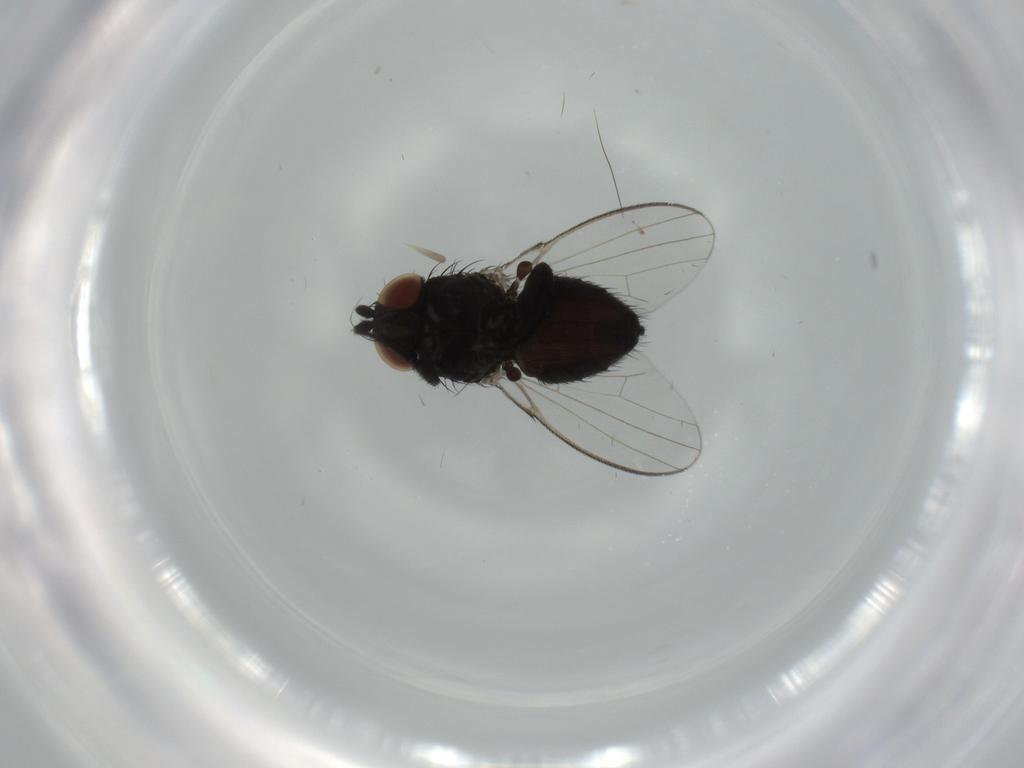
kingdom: Animalia
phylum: Arthropoda
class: Insecta
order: Diptera
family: Sciaridae
